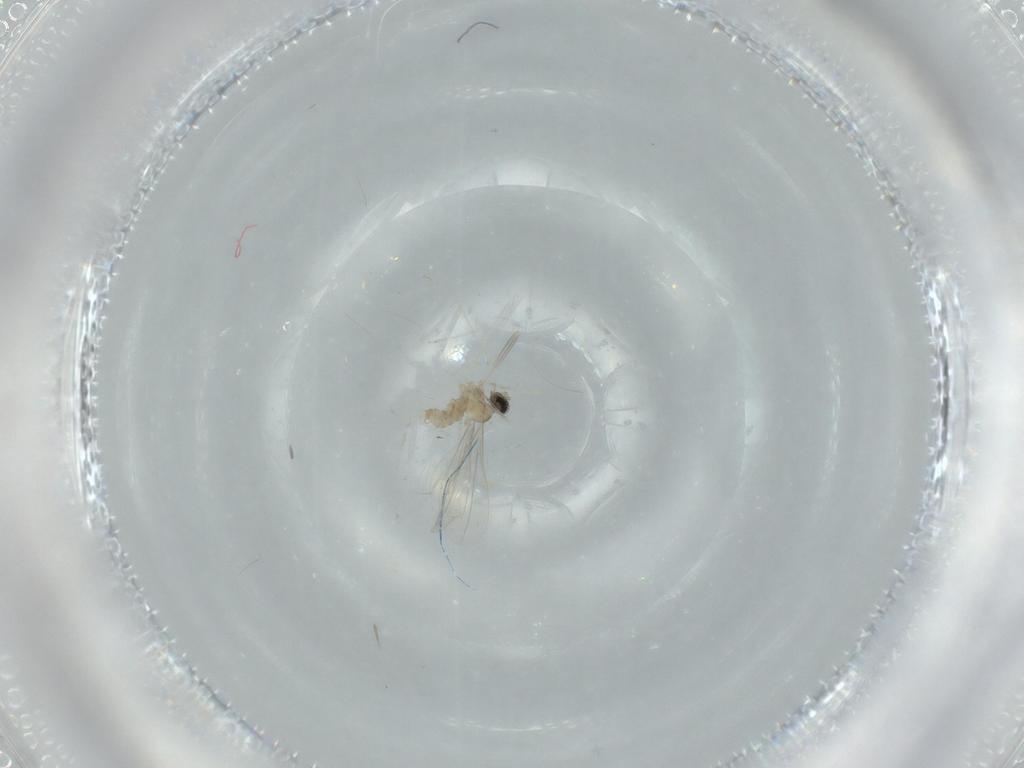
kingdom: Animalia
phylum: Arthropoda
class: Insecta
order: Diptera
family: Cecidomyiidae
